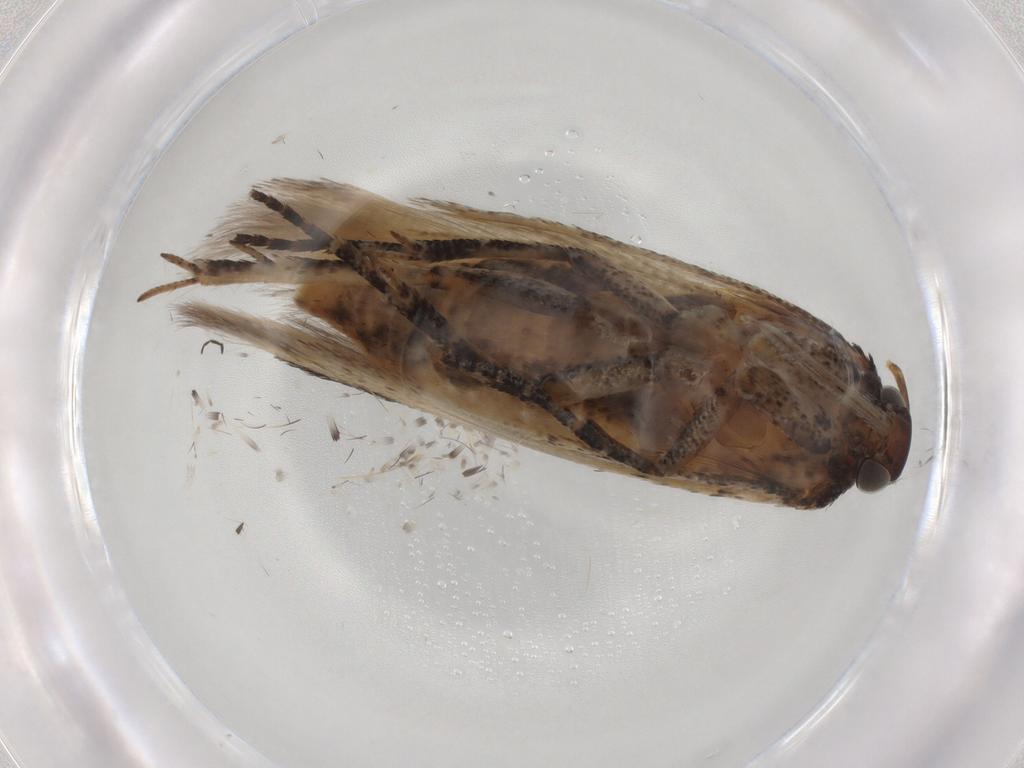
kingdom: Animalia
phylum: Arthropoda
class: Insecta
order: Lepidoptera
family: Gelechiidae
